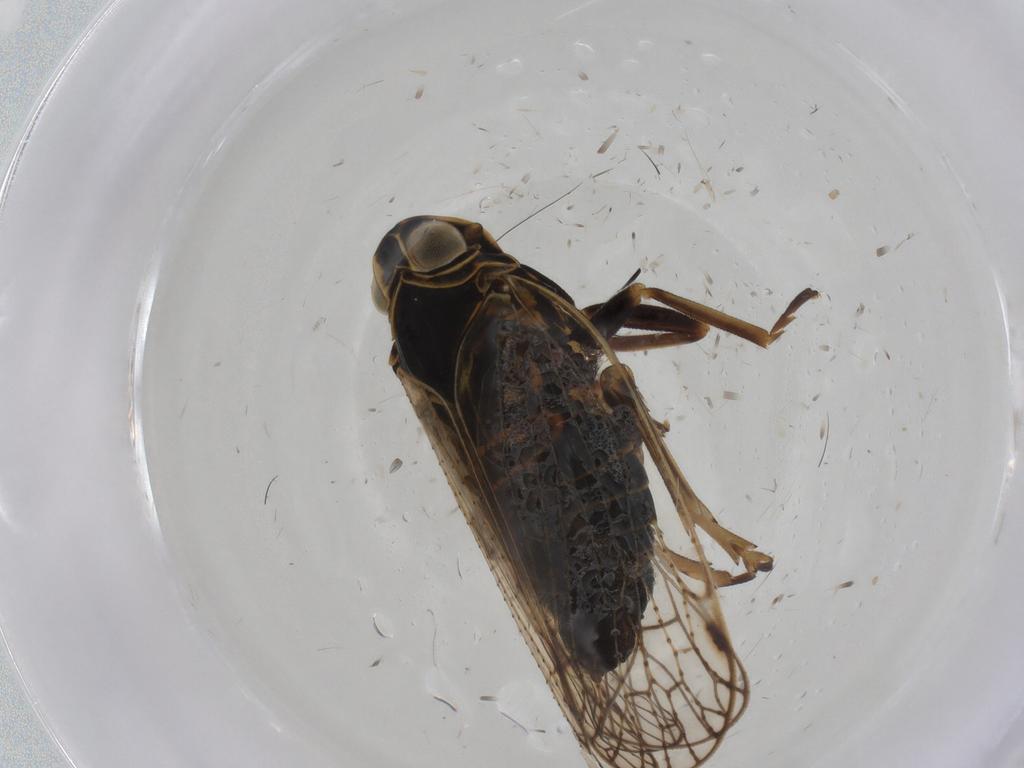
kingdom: Animalia
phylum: Arthropoda
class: Insecta
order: Hemiptera
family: Cixiidae
